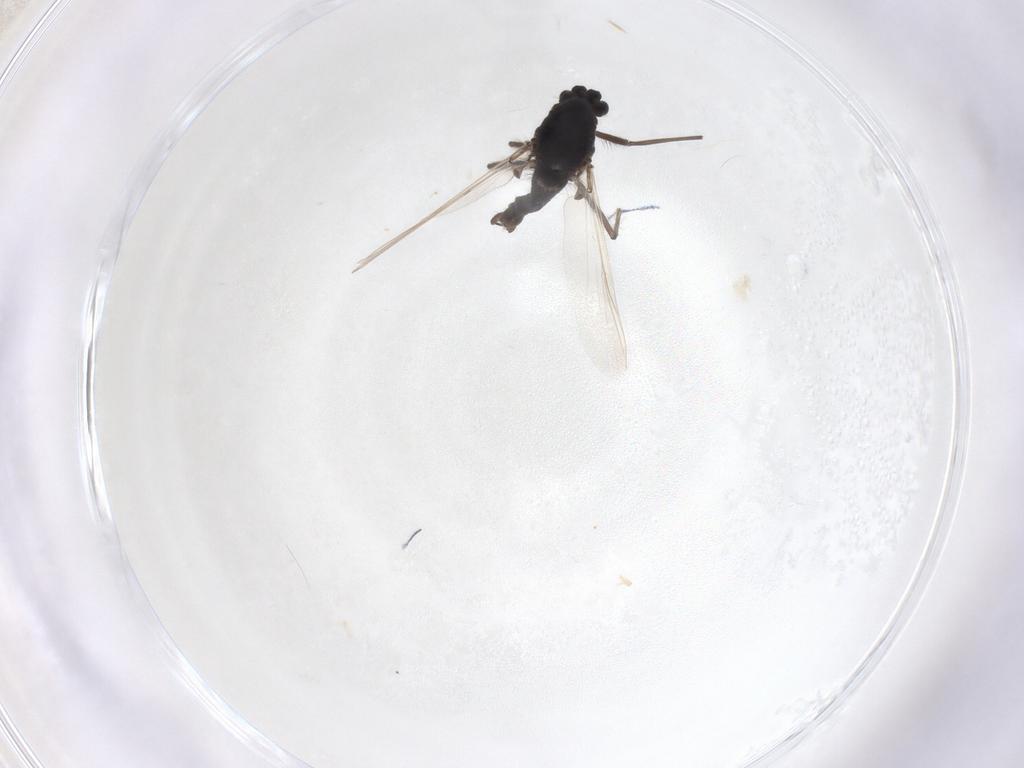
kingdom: Animalia
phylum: Arthropoda
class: Insecta
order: Diptera
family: Chironomidae
